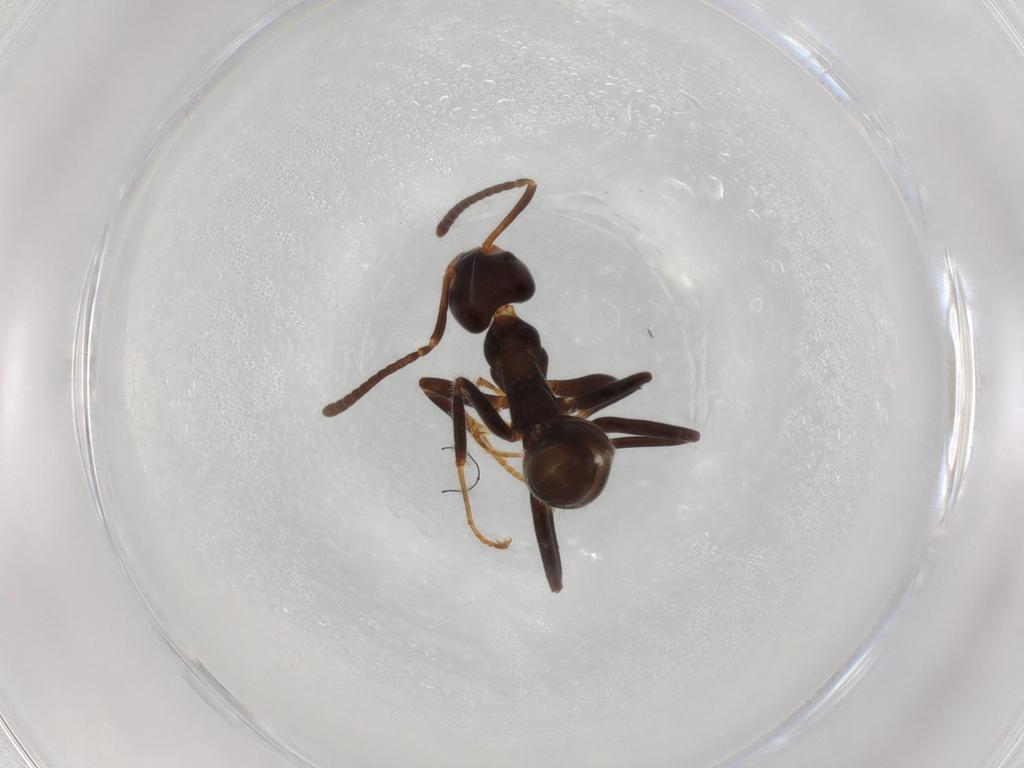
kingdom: Animalia
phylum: Arthropoda
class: Insecta
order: Hymenoptera
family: Formicidae
